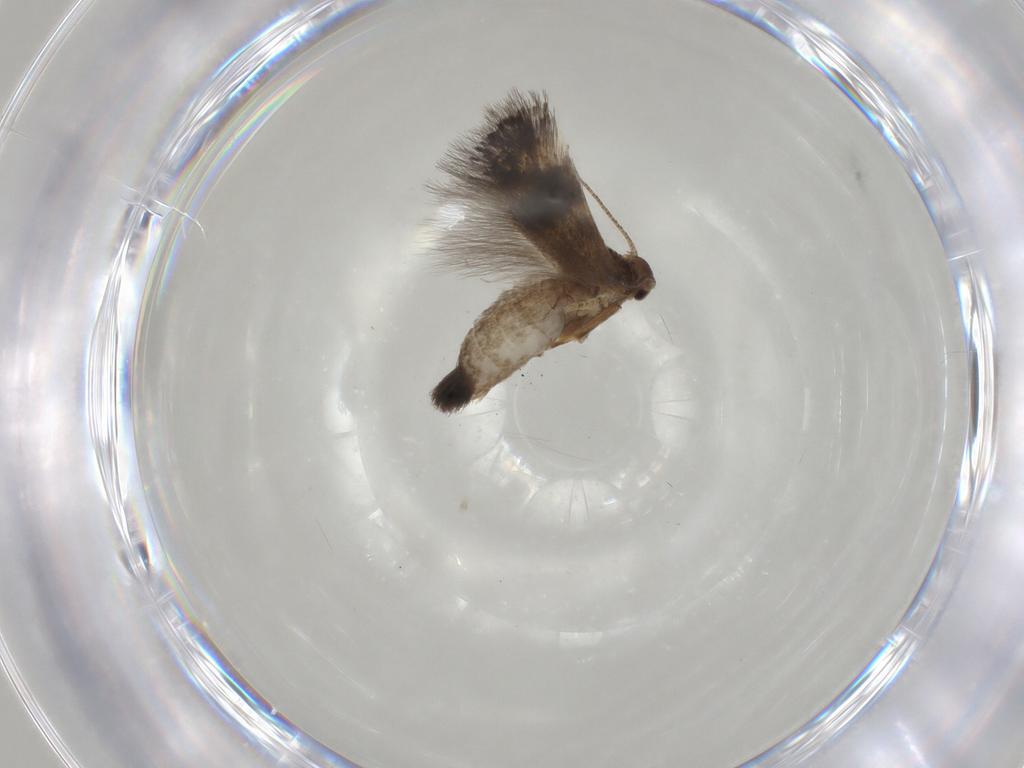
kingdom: Animalia
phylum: Arthropoda
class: Insecta
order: Lepidoptera
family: Elachistidae
